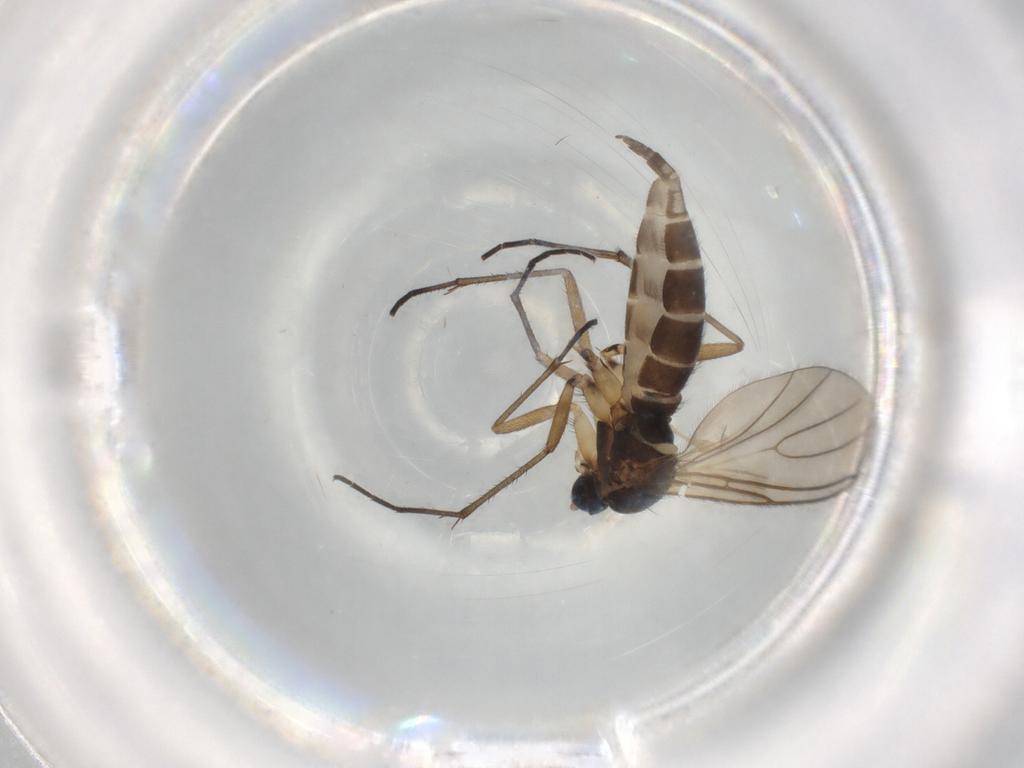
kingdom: Animalia
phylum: Arthropoda
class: Insecta
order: Diptera
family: Sciaridae
